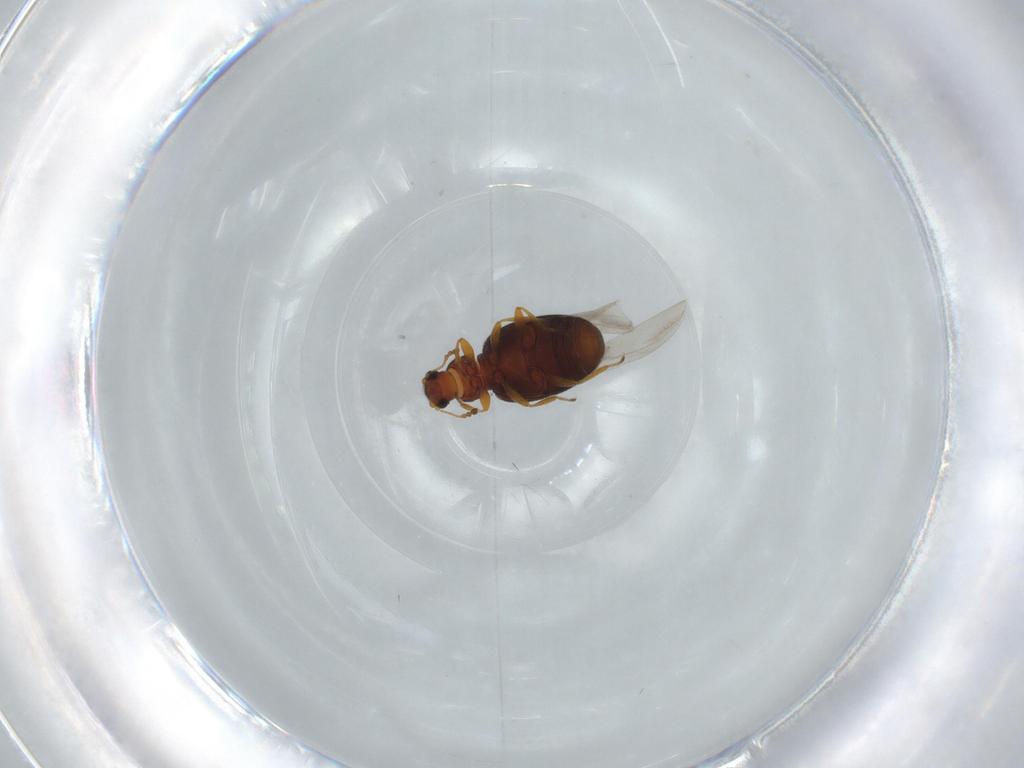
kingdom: Animalia
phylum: Arthropoda
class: Insecta
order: Coleoptera
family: Latridiidae
